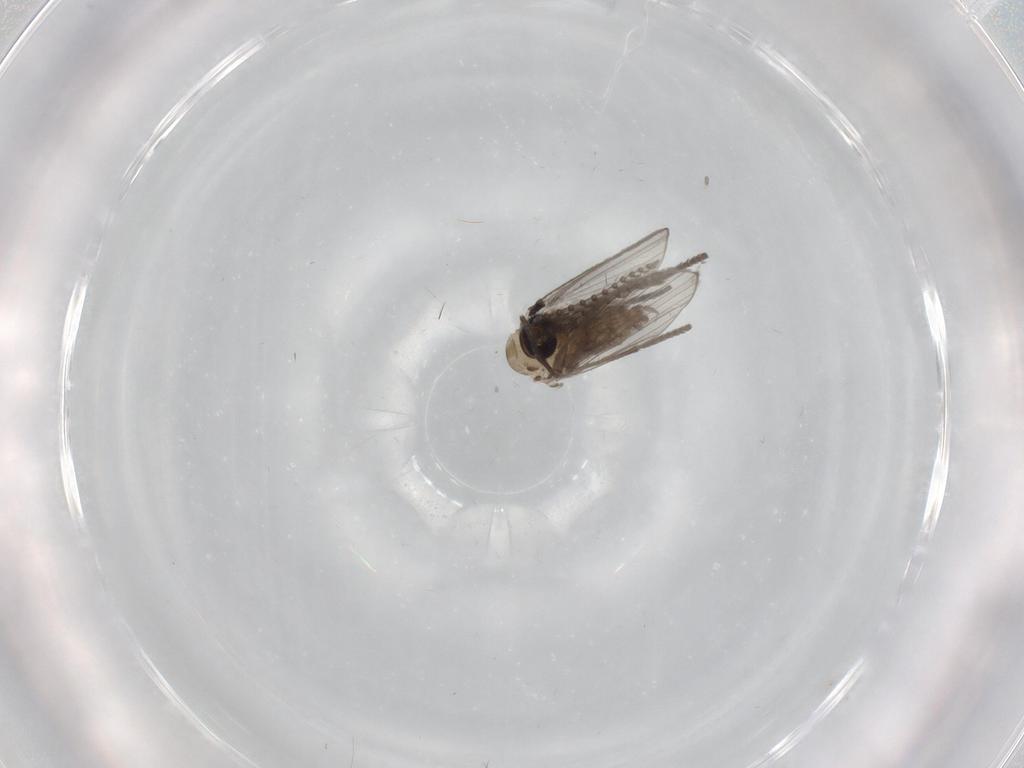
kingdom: Animalia
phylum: Arthropoda
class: Insecta
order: Diptera
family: Psychodidae
